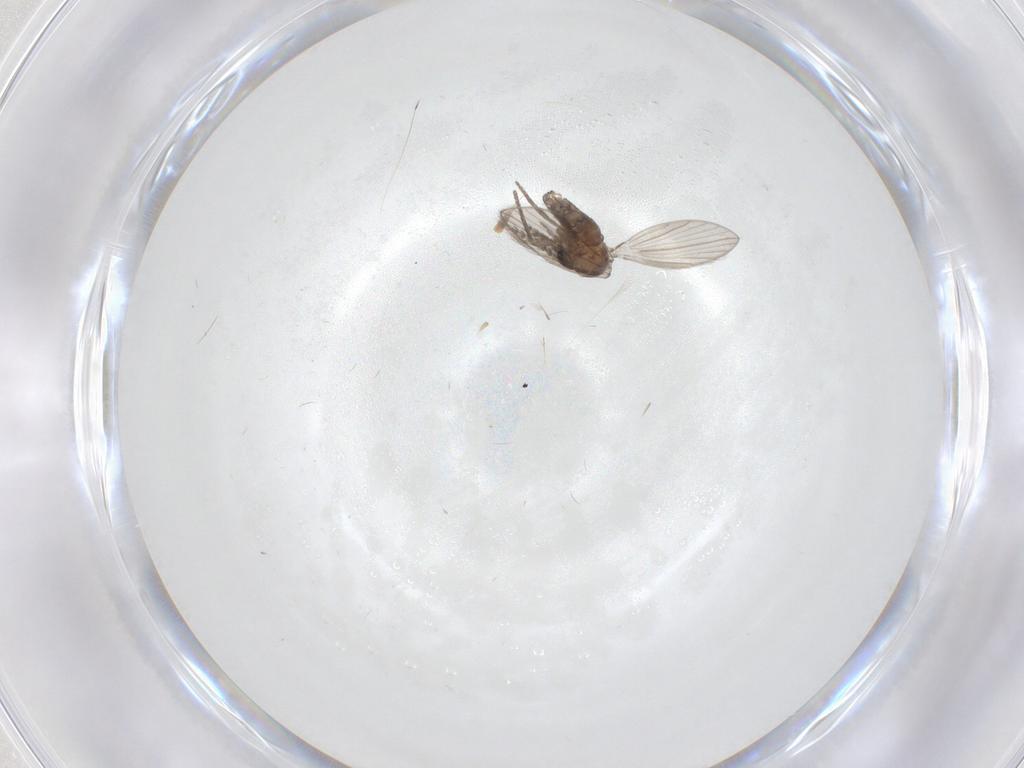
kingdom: Animalia
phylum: Arthropoda
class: Insecta
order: Diptera
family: Psychodidae
